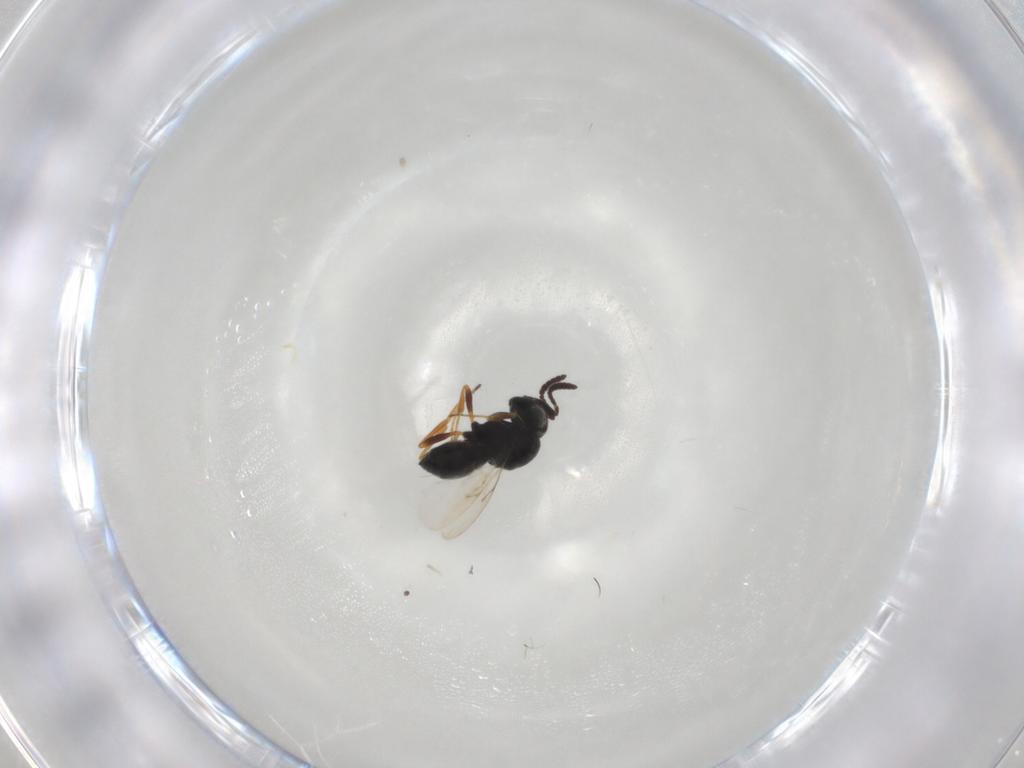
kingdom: Animalia
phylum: Arthropoda
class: Insecta
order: Hymenoptera
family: Scelionidae
